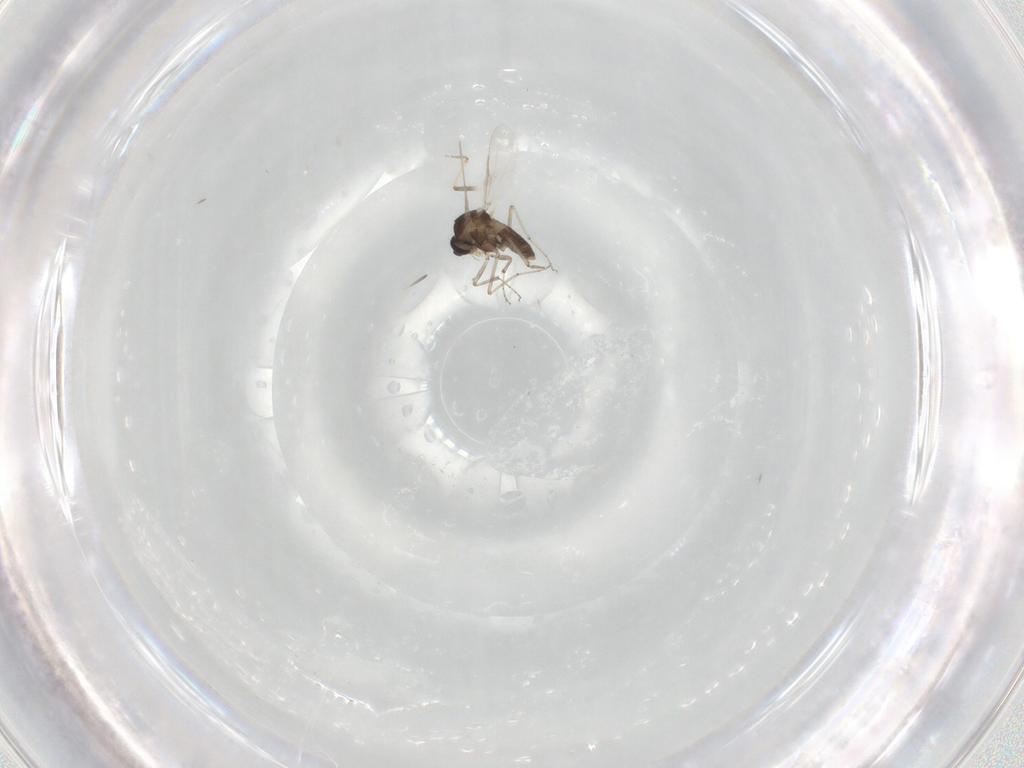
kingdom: Animalia
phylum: Arthropoda
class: Insecta
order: Diptera
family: Ceratopogonidae
